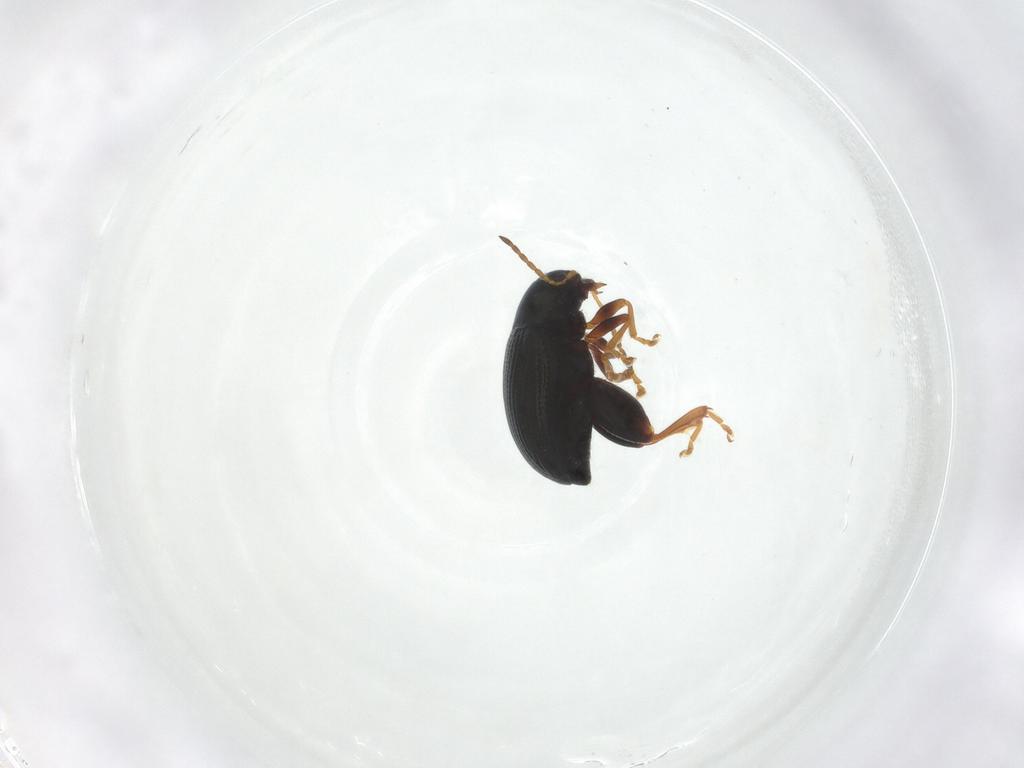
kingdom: Animalia
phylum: Arthropoda
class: Insecta
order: Coleoptera
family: Chrysomelidae
